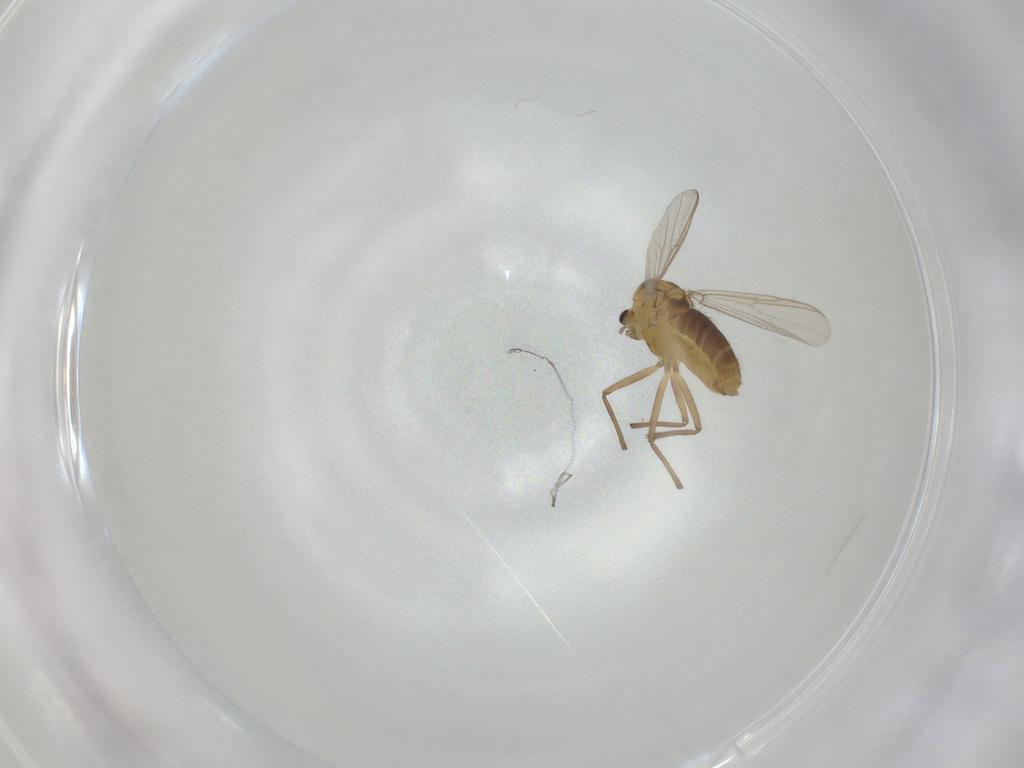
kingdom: Animalia
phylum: Arthropoda
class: Insecta
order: Diptera
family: Chironomidae
